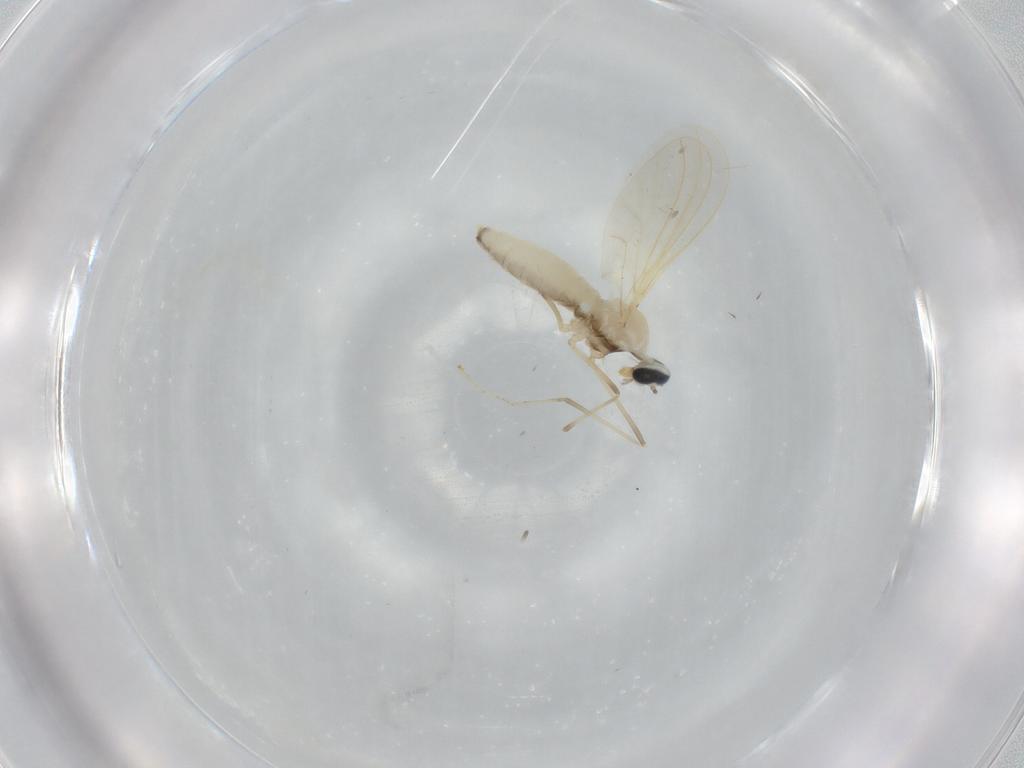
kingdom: Animalia
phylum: Arthropoda
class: Insecta
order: Diptera
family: Cecidomyiidae
